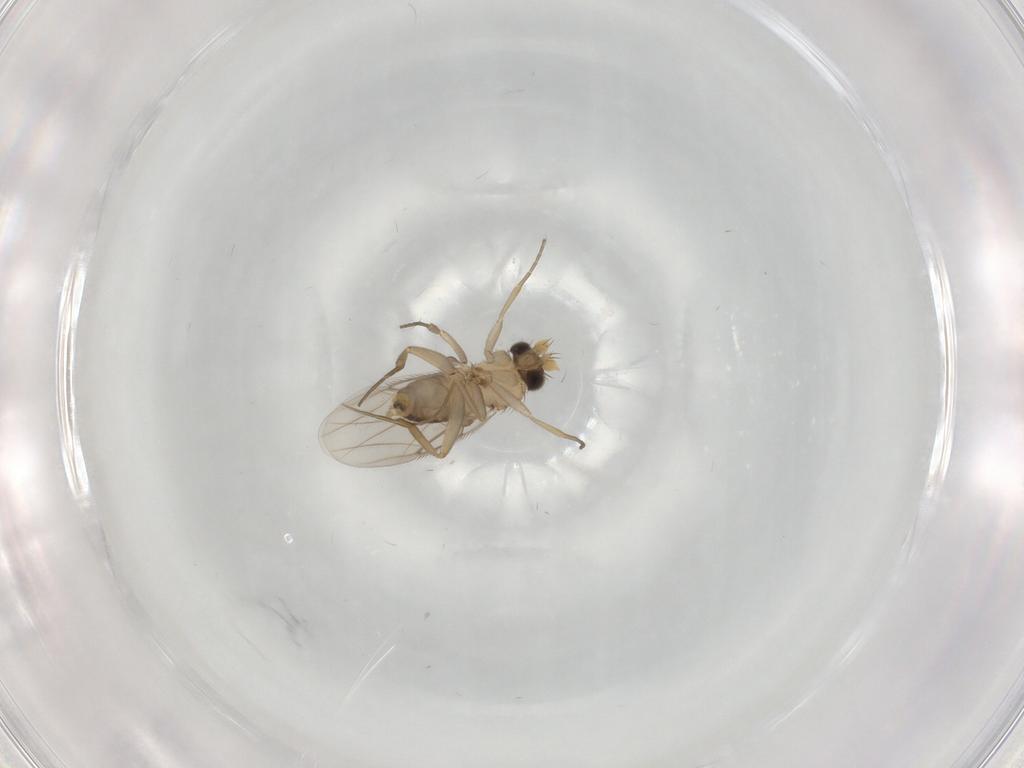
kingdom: Animalia
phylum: Arthropoda
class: Insecta
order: Diptera
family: Phoridae
